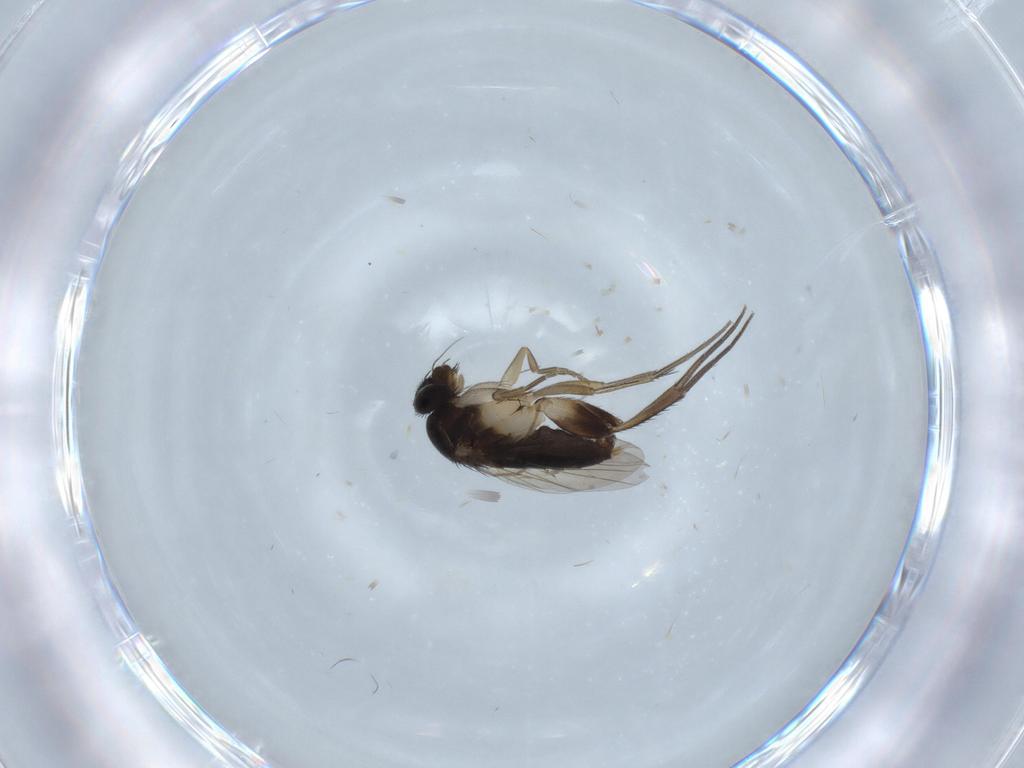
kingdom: Animalia
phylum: Arthropoda
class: Insecta
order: Diptera
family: Phoridae
